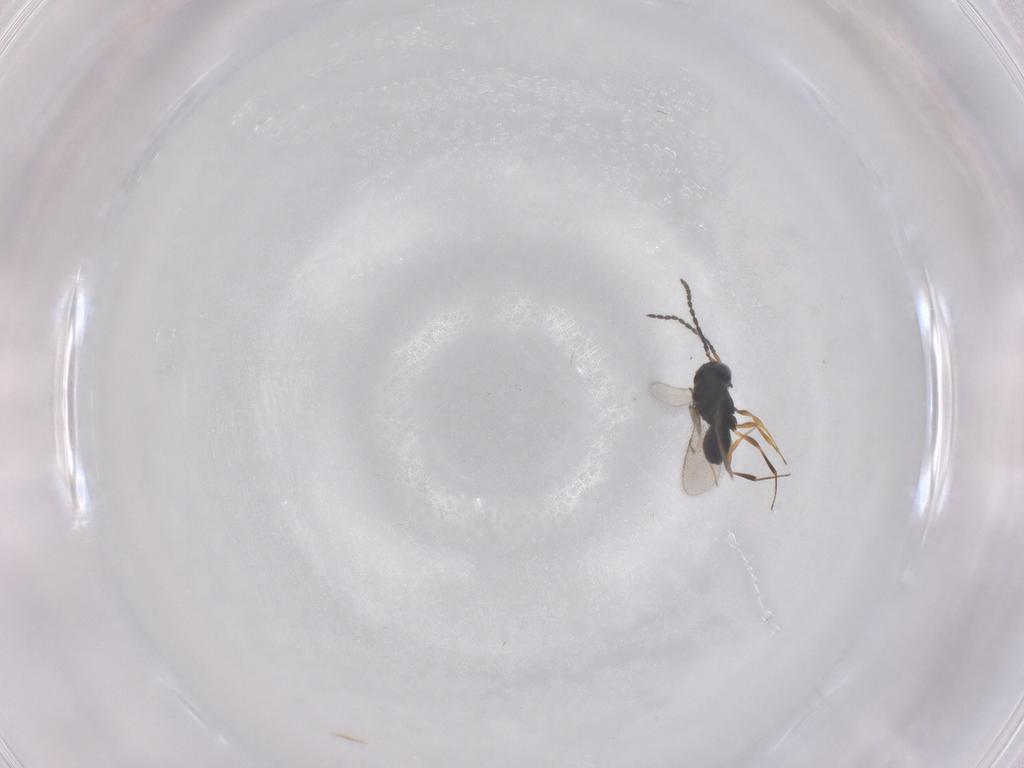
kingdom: Animalia
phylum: Arthropoda
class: Insecta
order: Hymenoptera
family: Scelionidae
